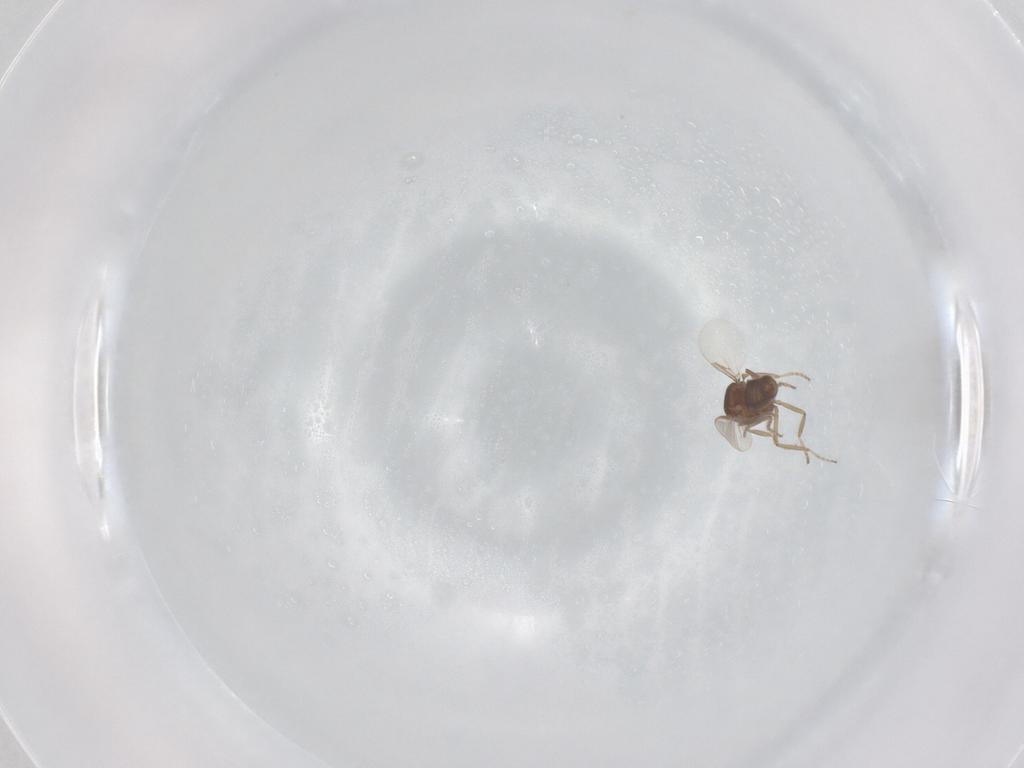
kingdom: Animalia
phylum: Arthropoda
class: Insecta
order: Diptera
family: Ceratopogonidae
